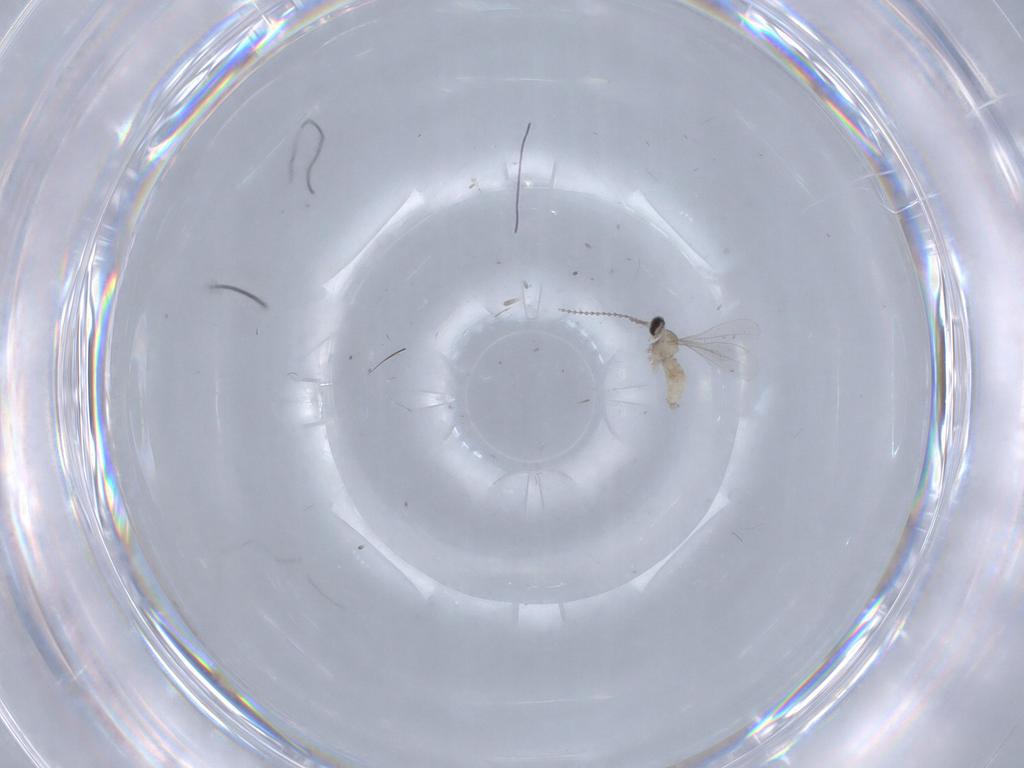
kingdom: Animalia
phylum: Arthropoda
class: Insecta
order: Diptera
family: Cecidomyiidae
